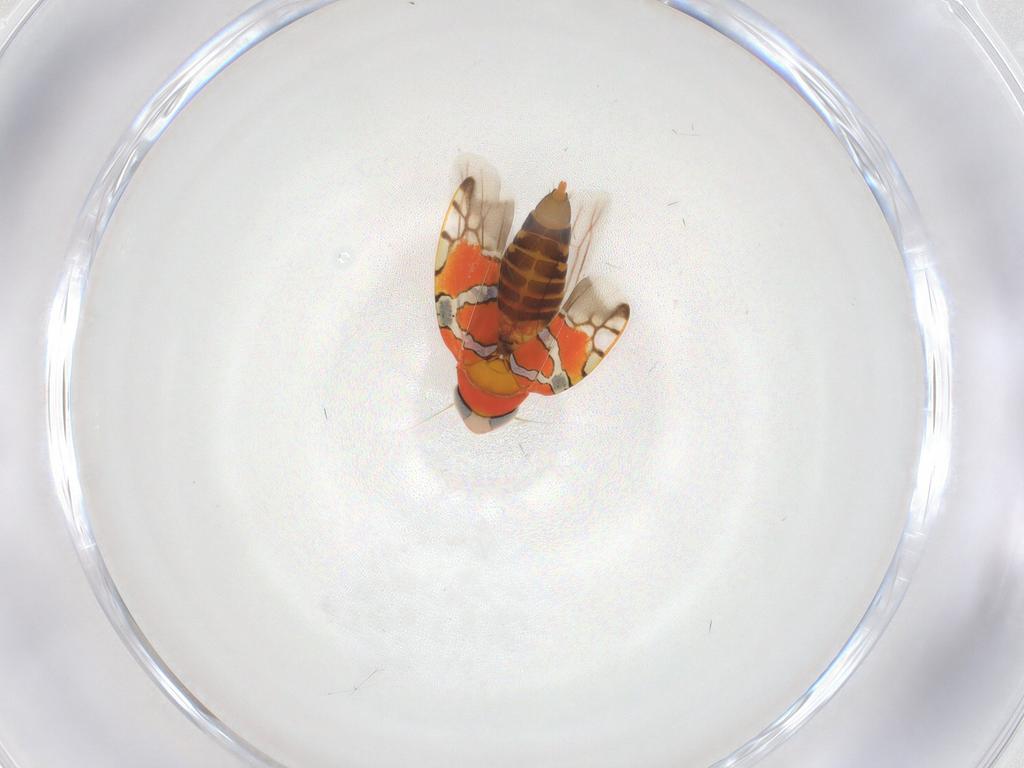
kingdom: Animalia
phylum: Arthropoda
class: Insecta
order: Hemiptera
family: Cicadellidae
